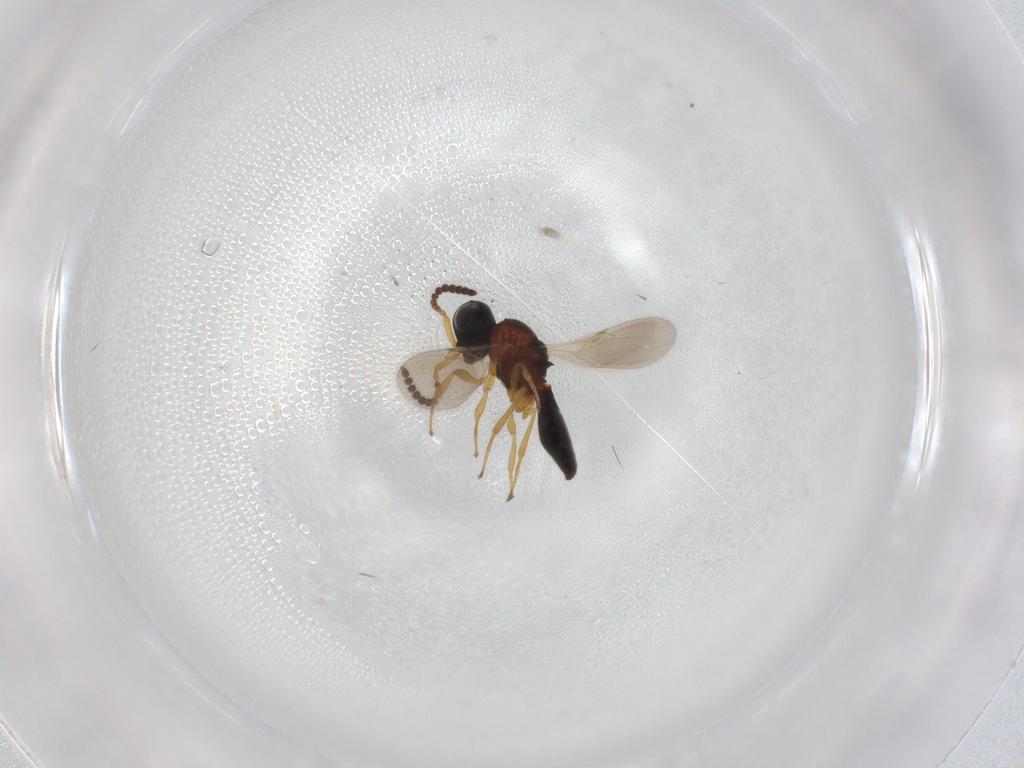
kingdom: Animalia
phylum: Arthropoda
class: Insecta
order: Hymenoptera
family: Scelionidae
